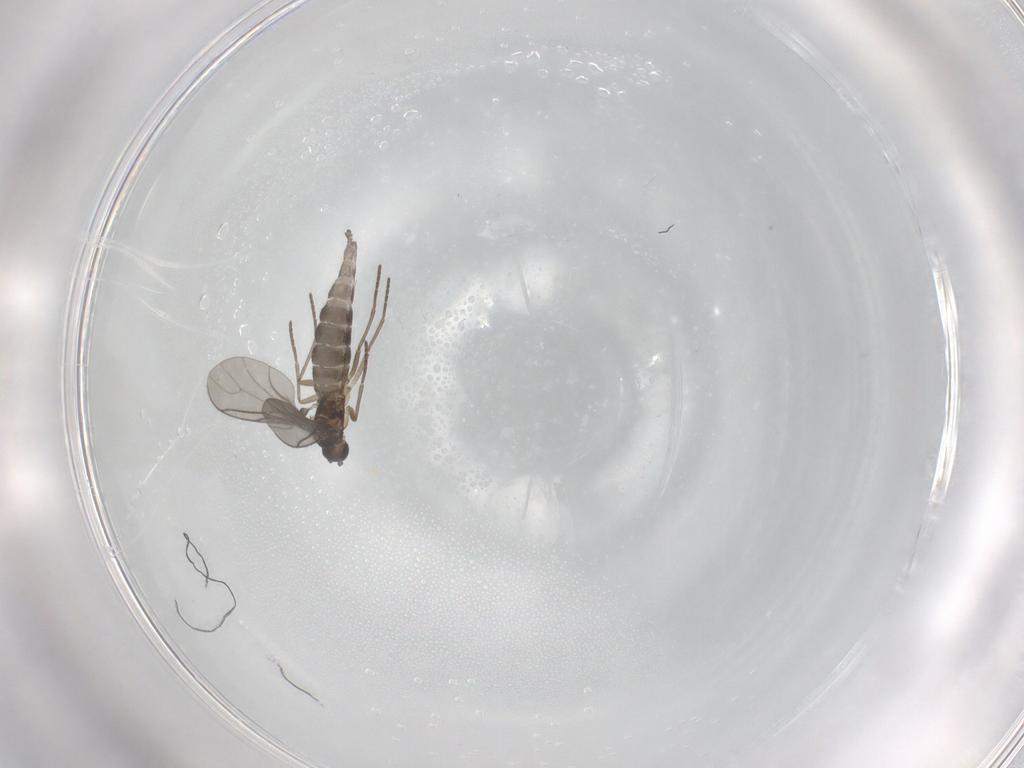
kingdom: Animalia
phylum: Arthropoda
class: Insecta
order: Diptera
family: Sciaridae
